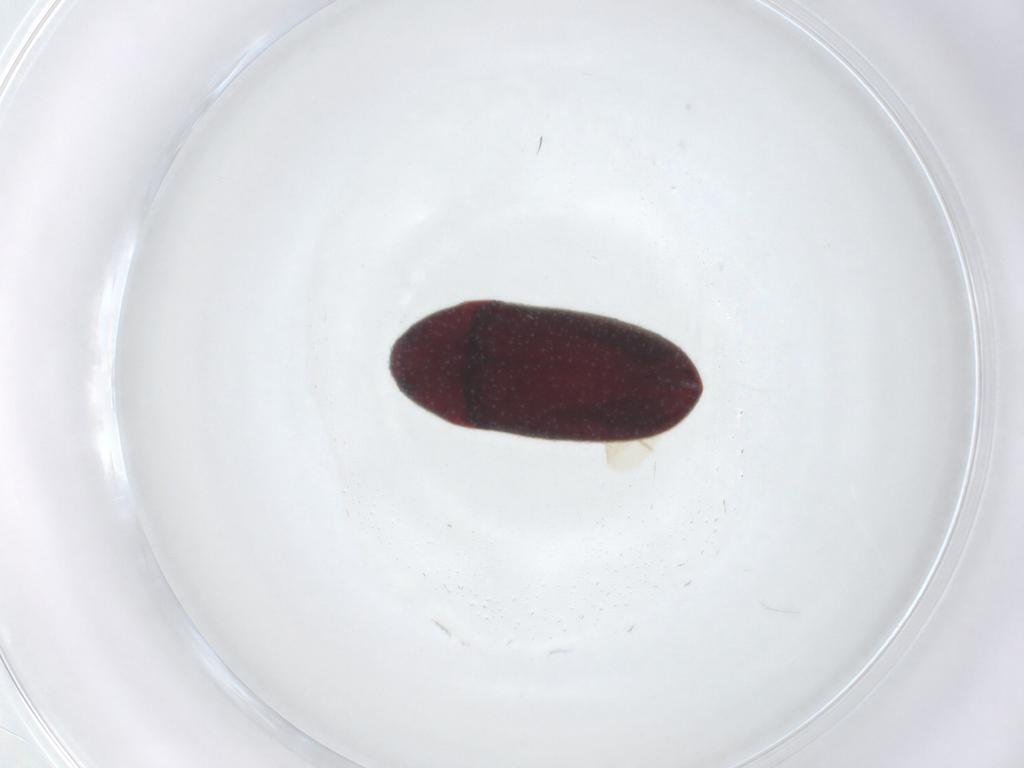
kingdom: Animalia
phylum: Arthropoda
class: Insecta
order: Coleoptera
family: Throscidae
